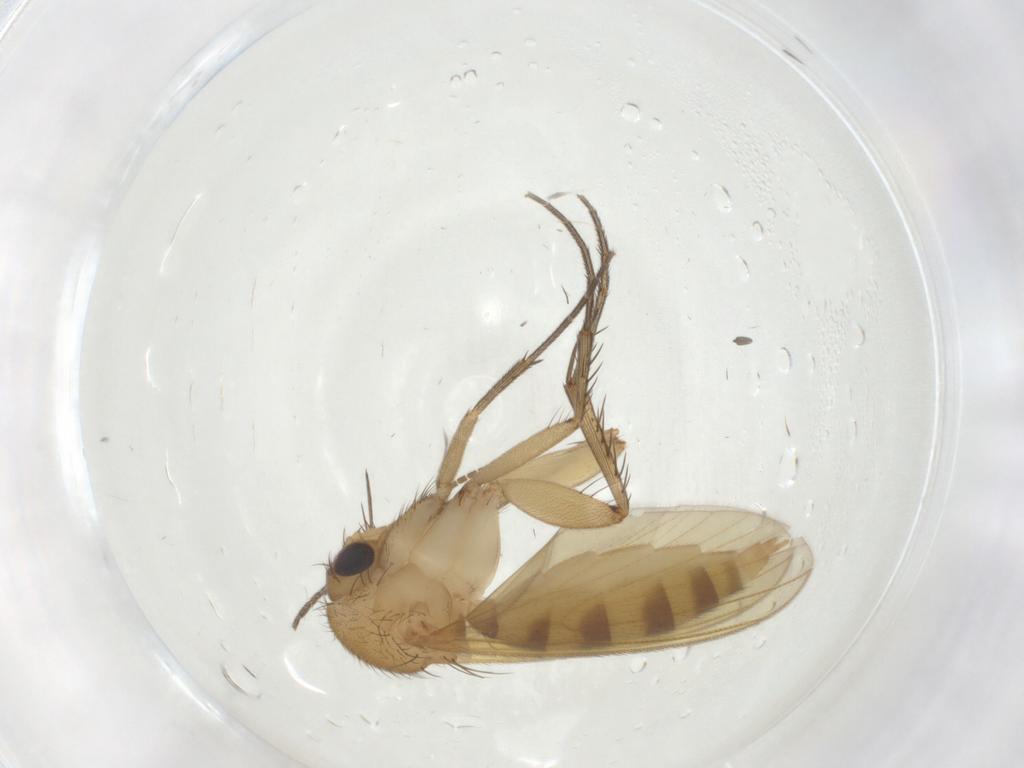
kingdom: Animalia
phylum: Arthropoda
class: Insecta
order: Diptera
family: Mycetophilidae
